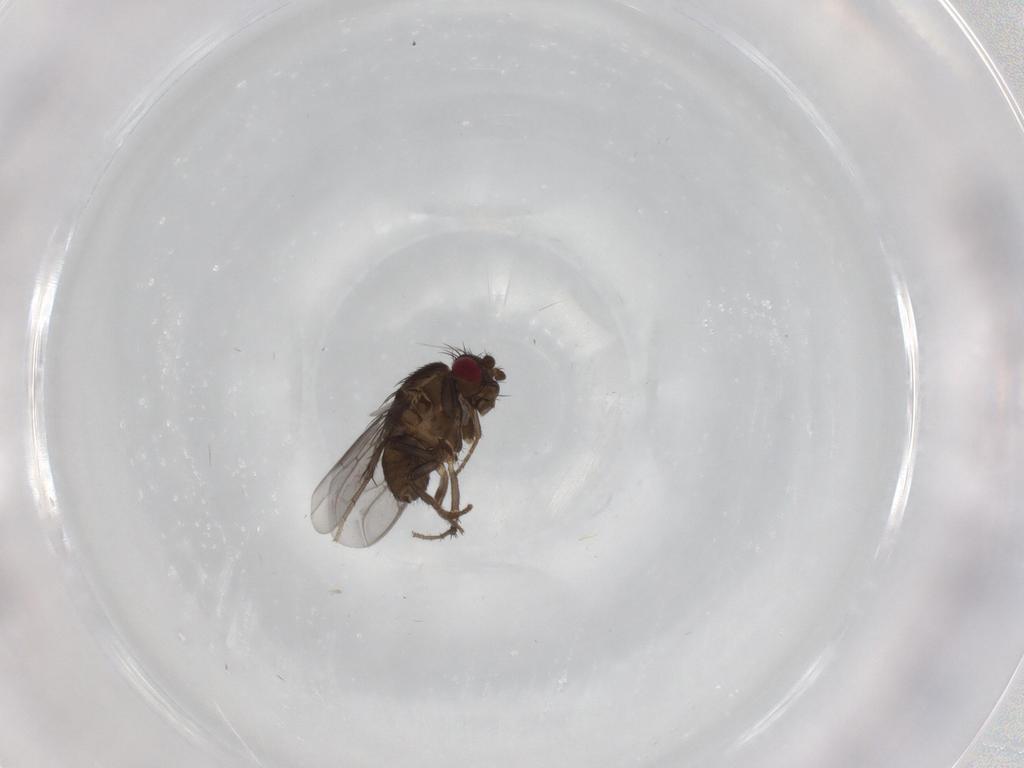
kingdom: Animalia
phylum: Arthropoda
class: Insecta
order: Diptera
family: Sphaeroceridae
